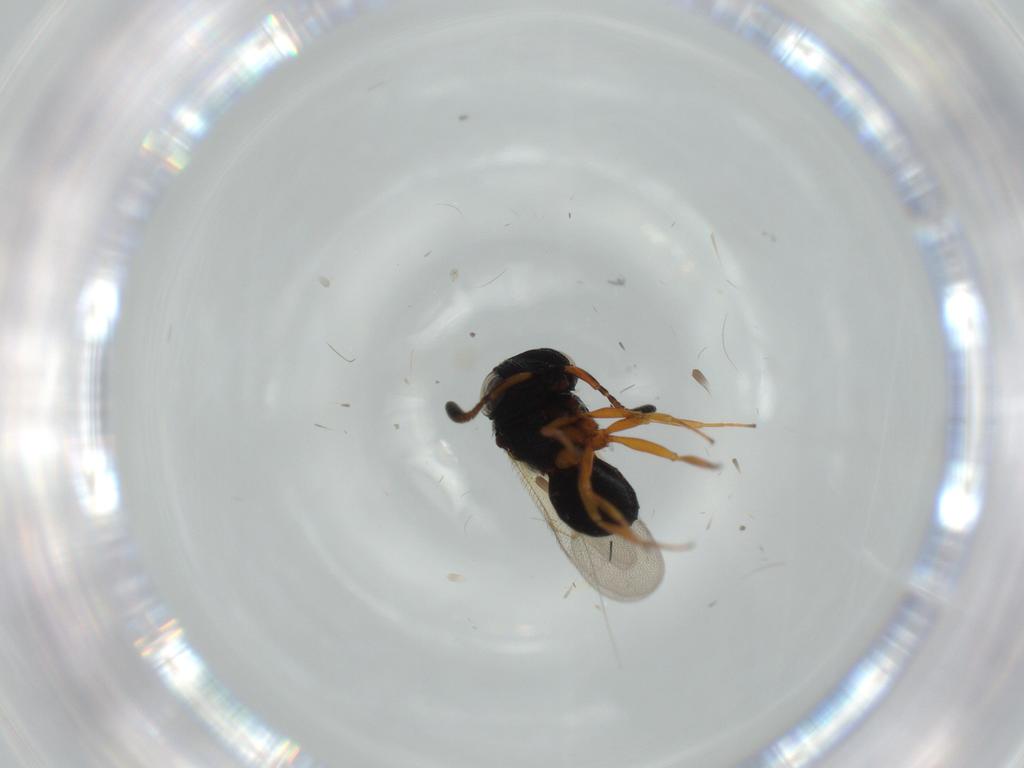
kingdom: Animalia
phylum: Arthropoda
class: Insecta
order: Hymenoptera
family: Scelionidae
